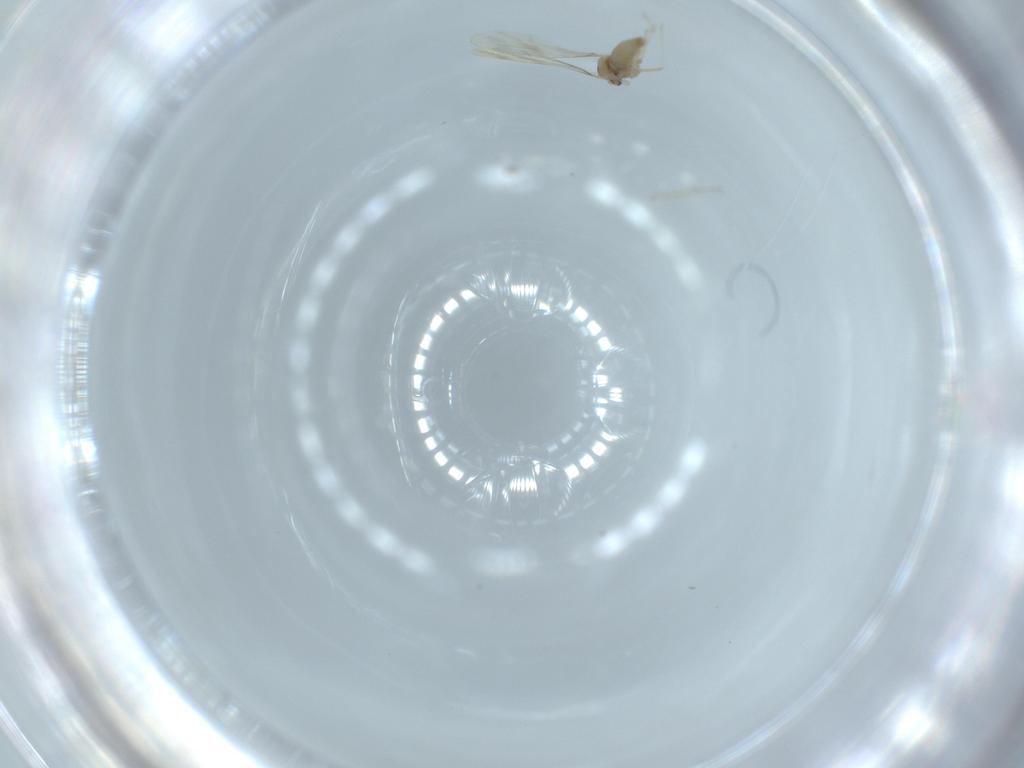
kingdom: Animalia
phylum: Arthropoda
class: Insecta
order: Diptera
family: Cecidomyiidae
